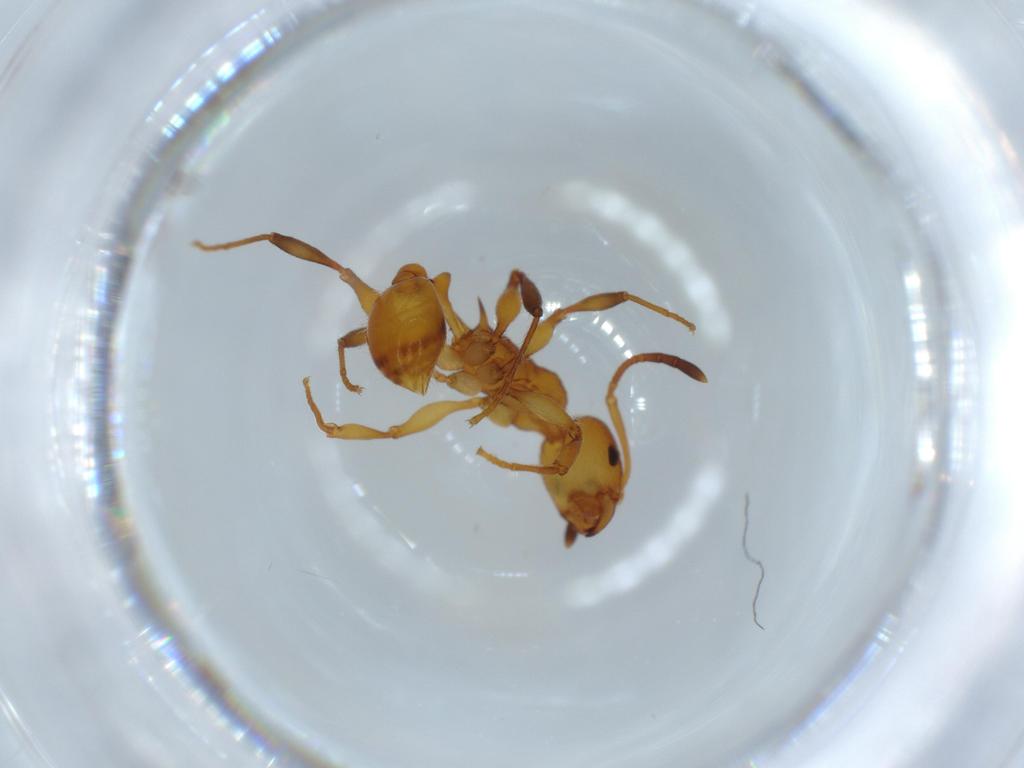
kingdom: Animalia
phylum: Arthropoda
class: Insecta
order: Hymenoptera
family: Formicidae
